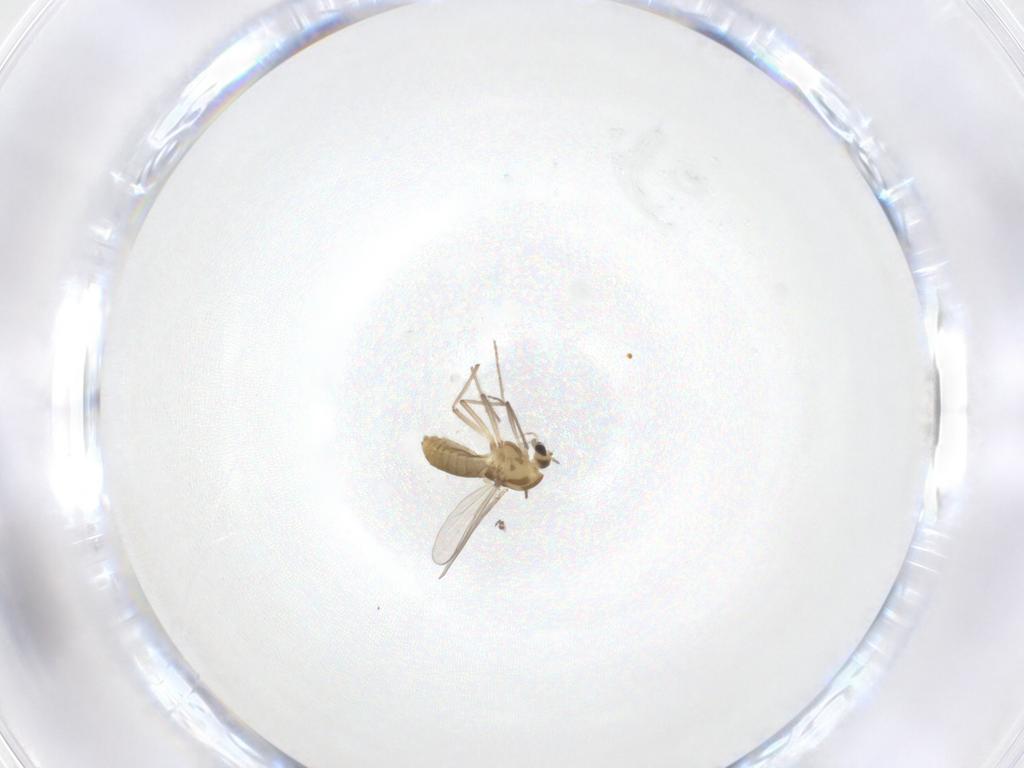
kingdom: Animalia
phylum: Arthropoda
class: Insecta
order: Diptera
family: Chironomidae
